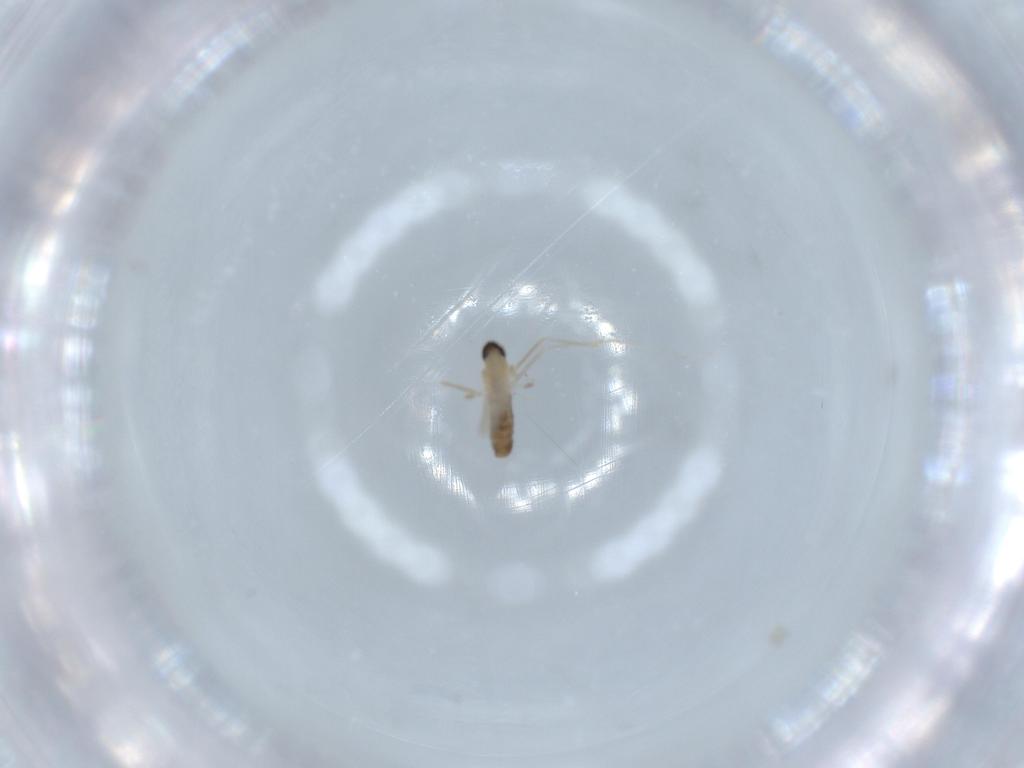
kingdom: Animalia
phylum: Arthropoda
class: Insecta
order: Diptera
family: Cecidomyiidae
